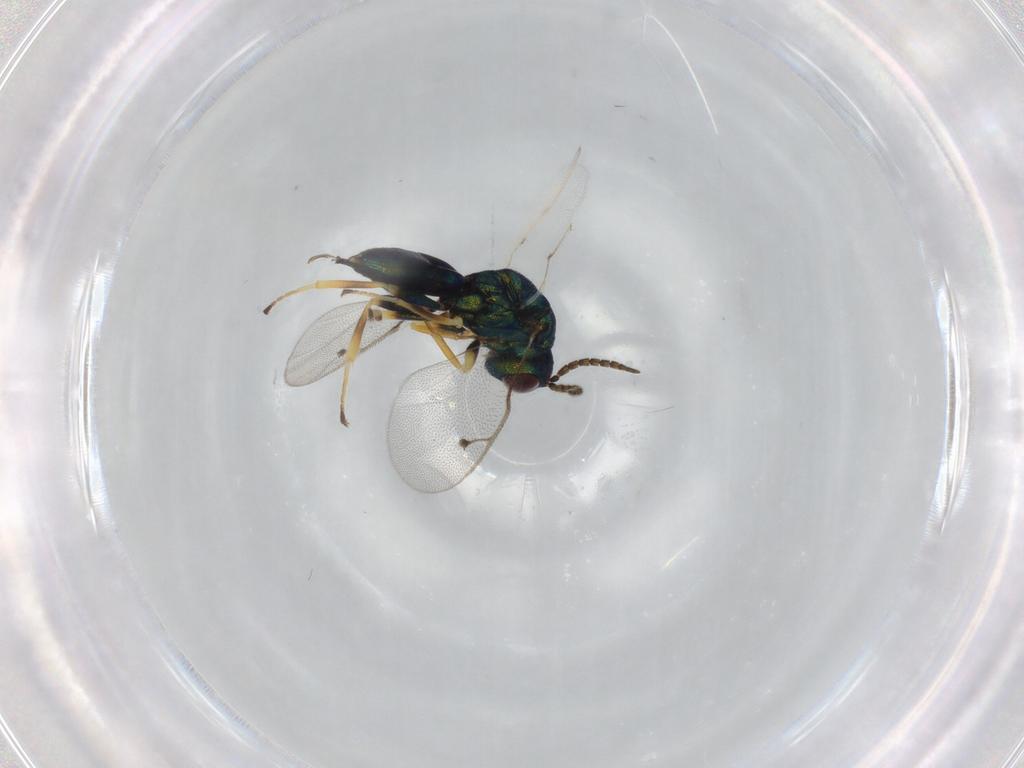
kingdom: Animalia
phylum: Arthropoda
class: Insecta
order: Hymenoptera
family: Pteromalidae
